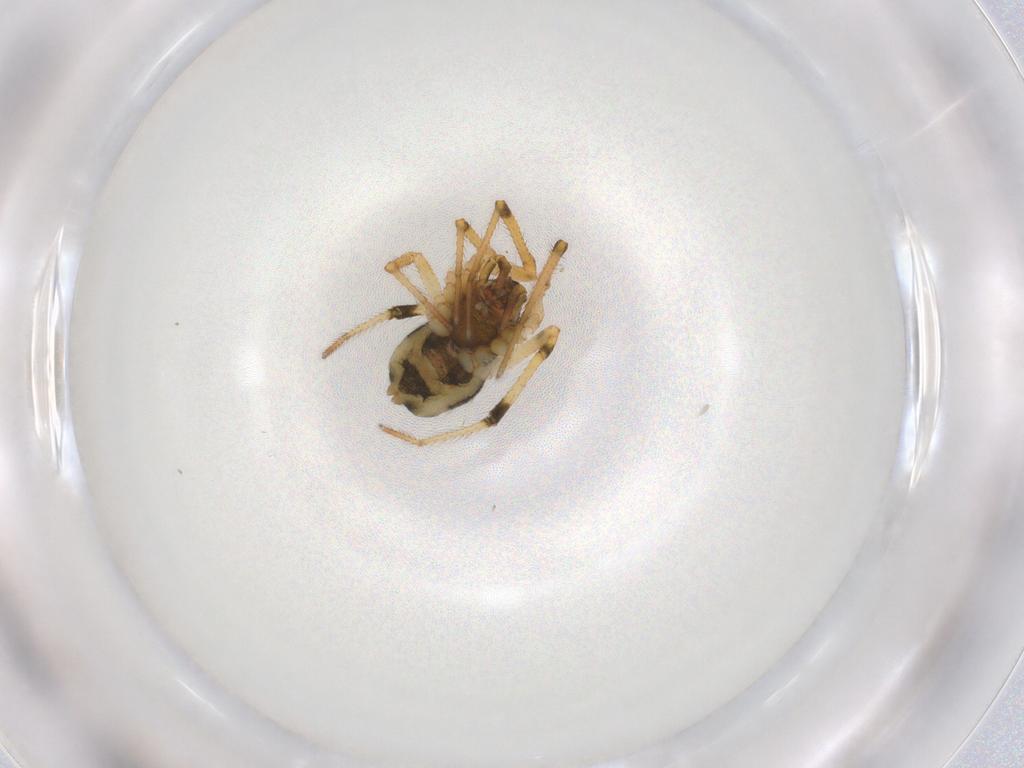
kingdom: Animalia
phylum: Arthropoda
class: Arachnida
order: Araneae
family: Theridiidae
